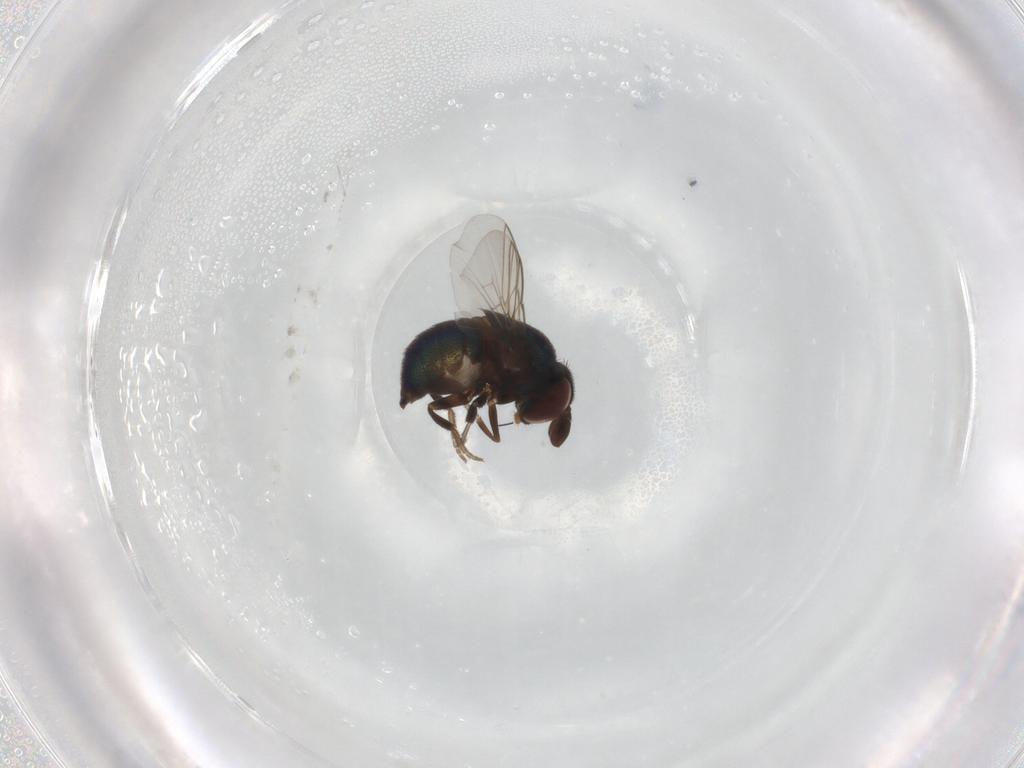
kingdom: Animalia
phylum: Arthropoda
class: Insecta
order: Diptera
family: Cryptochetidae
